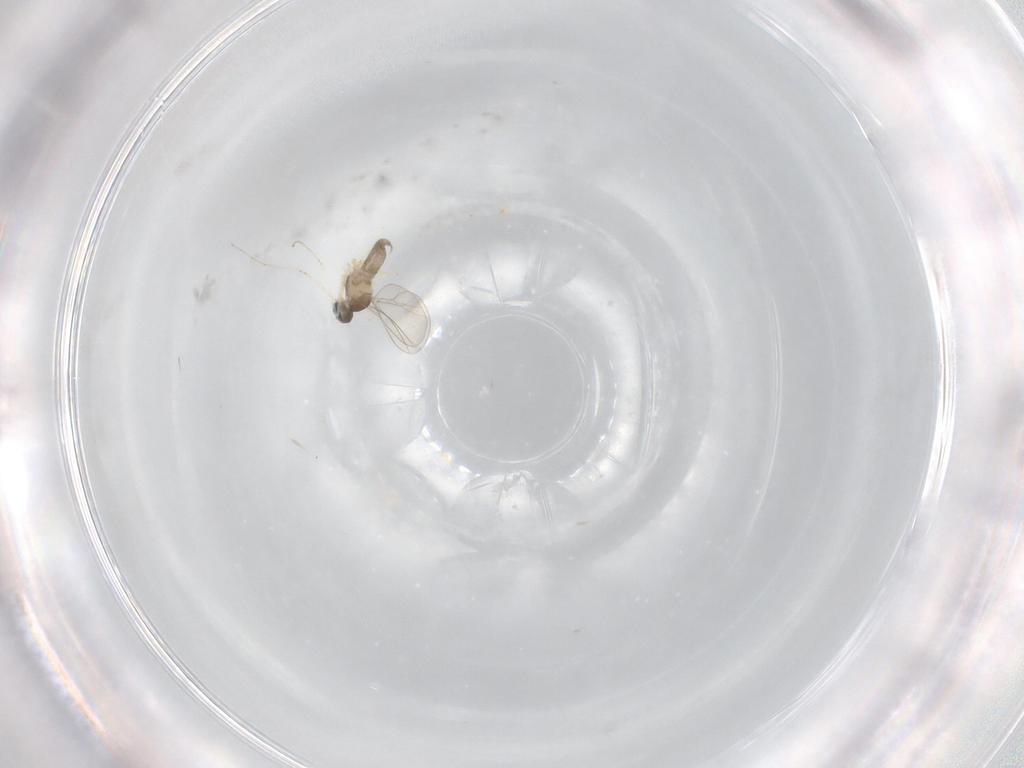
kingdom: Animalia
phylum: Arthropoda
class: Insecta
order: Diptera
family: Cecidomyiidae
